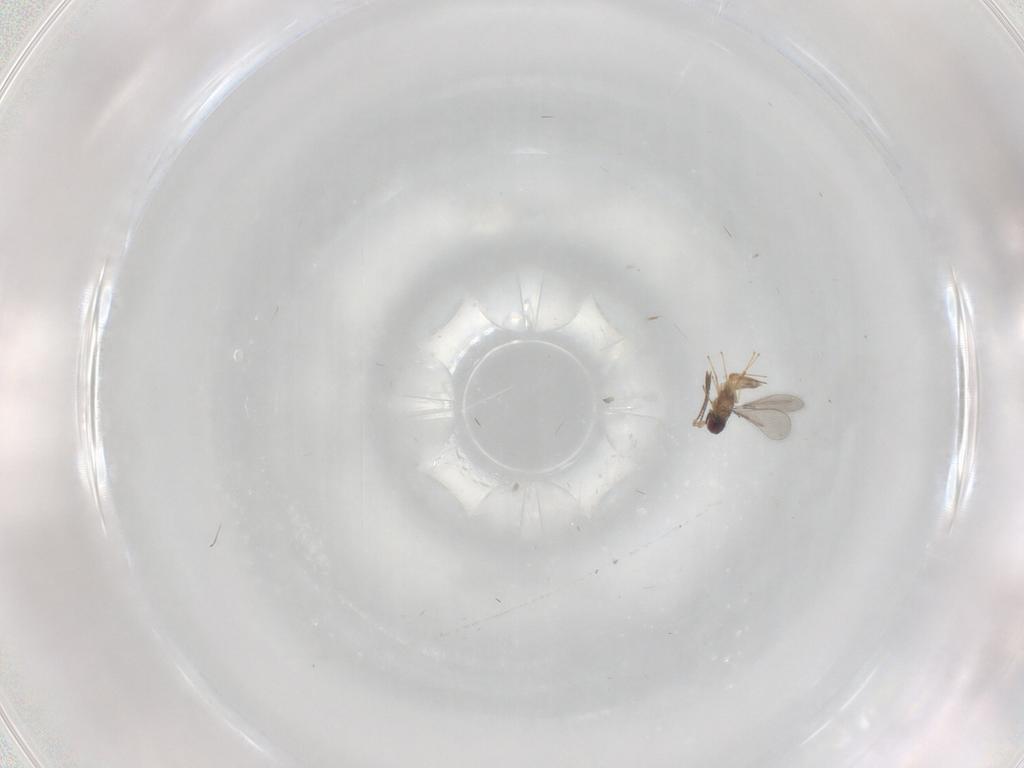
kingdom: Animalia
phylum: Arthropoda
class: Insecta
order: Hymenoptera
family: Mymaridae
